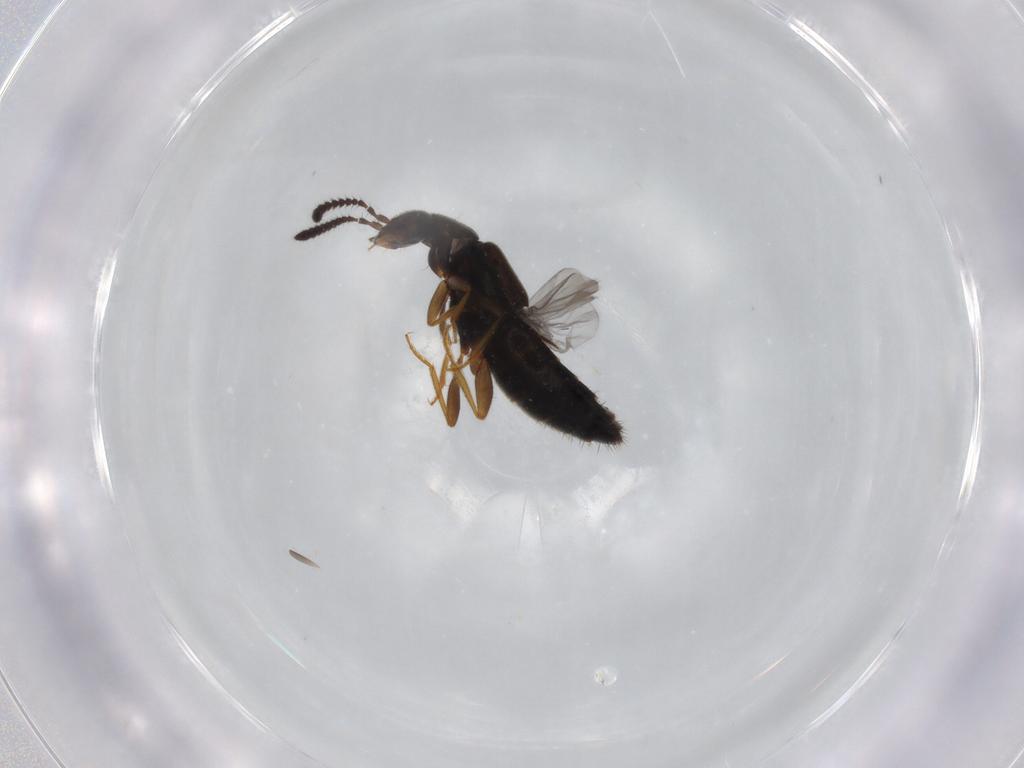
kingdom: Animalia
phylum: Arthropoda
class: Insecta
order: Coleoptera
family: Staphylinidae
